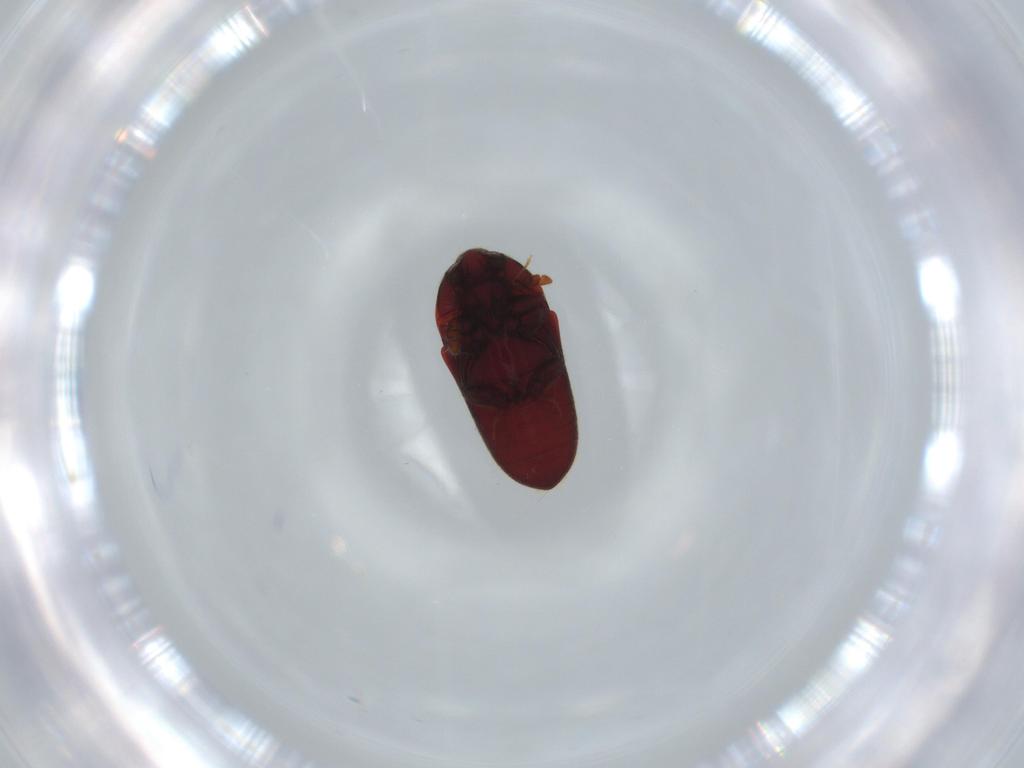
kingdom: Animalia
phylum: Arthropoda
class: Insecta
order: Coleoptera
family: Throscidae
